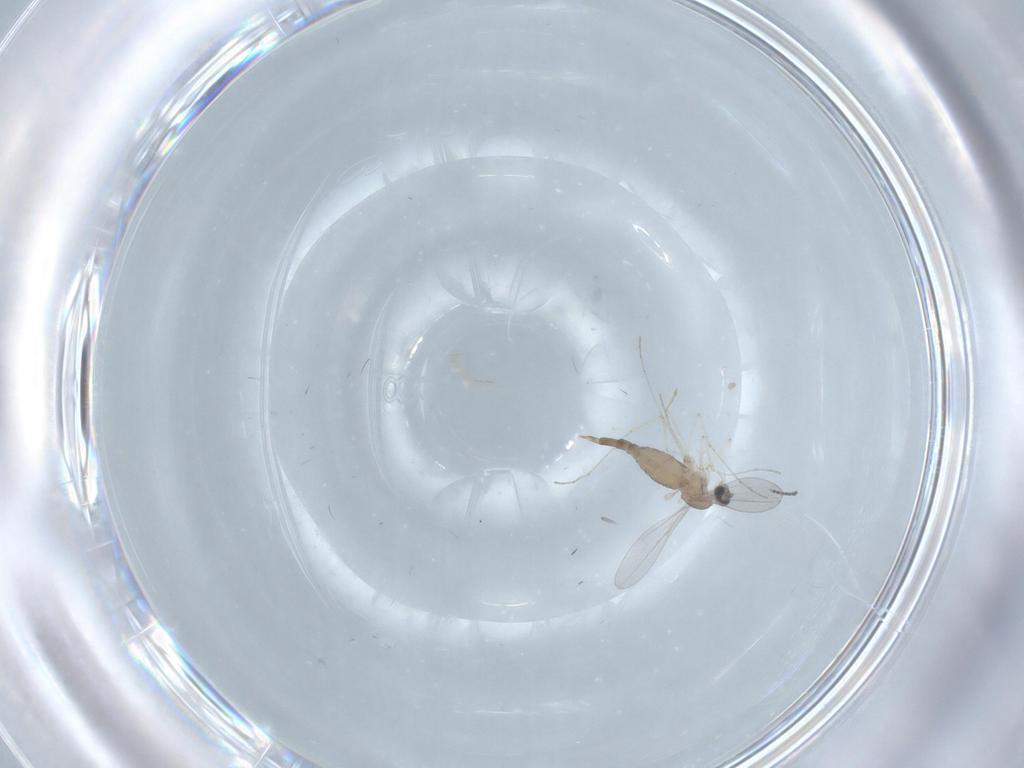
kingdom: Animalia
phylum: Arthropoda
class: Insecta
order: Diptera
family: Cecidomyiidae
